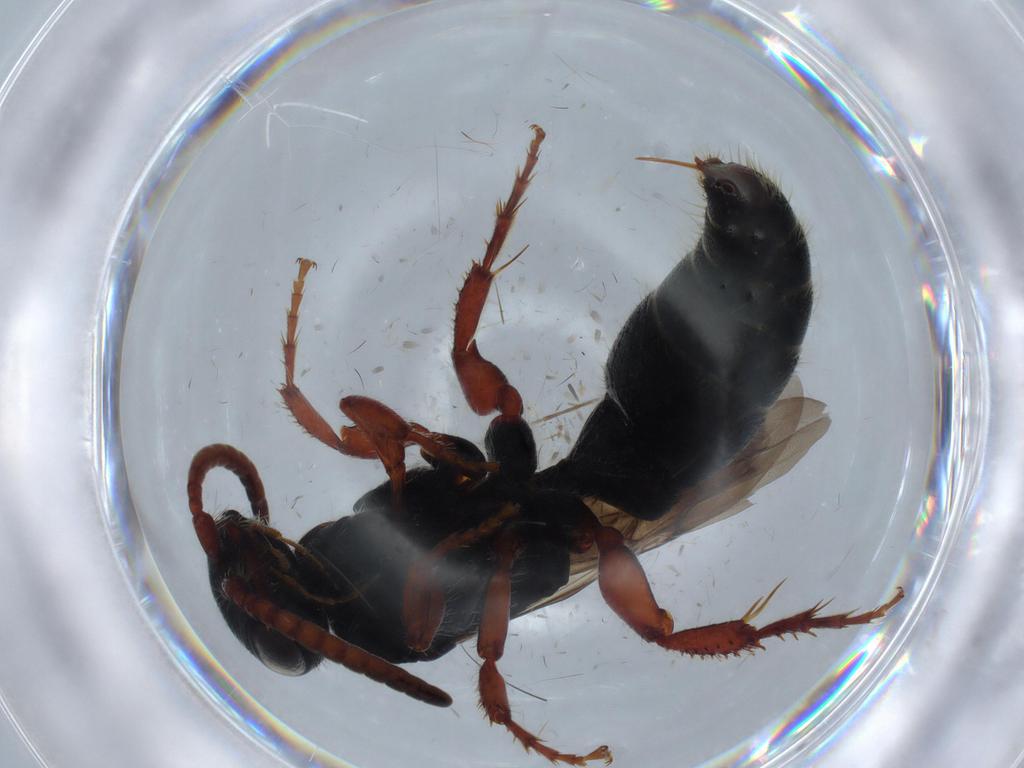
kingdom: Animalia
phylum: Arthropoda
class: Insecta
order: Hymenoptera
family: Tiphiidae
